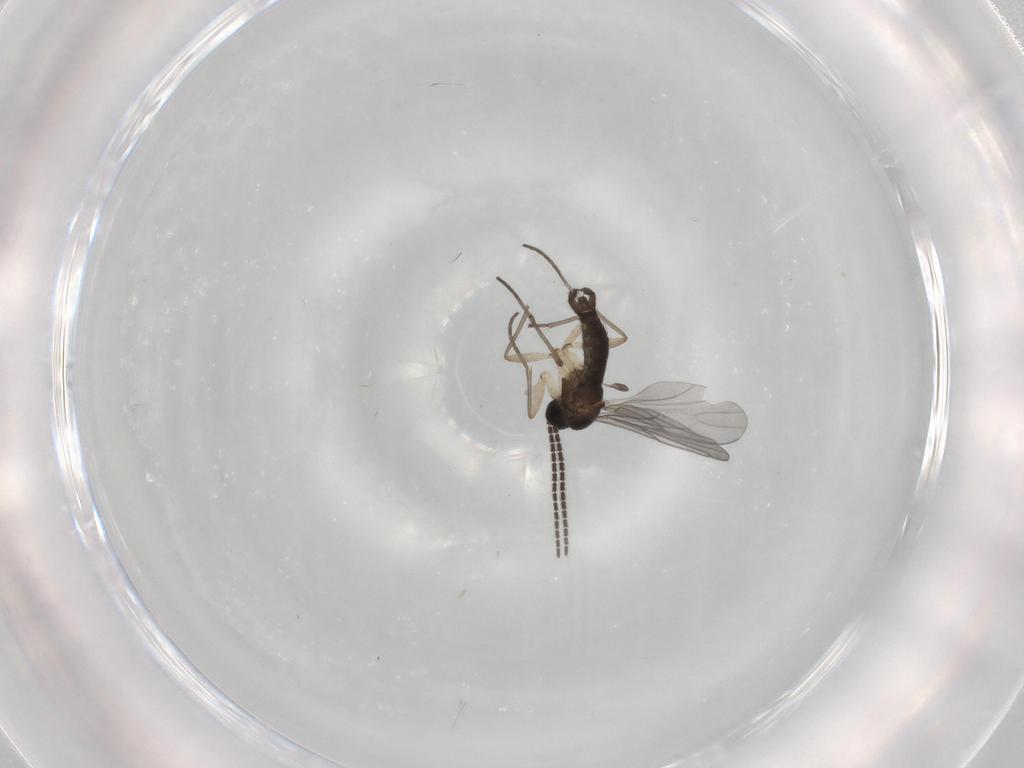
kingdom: Animalia
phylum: Arthropoda
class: Insecta
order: Diptera
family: Sciaridae
